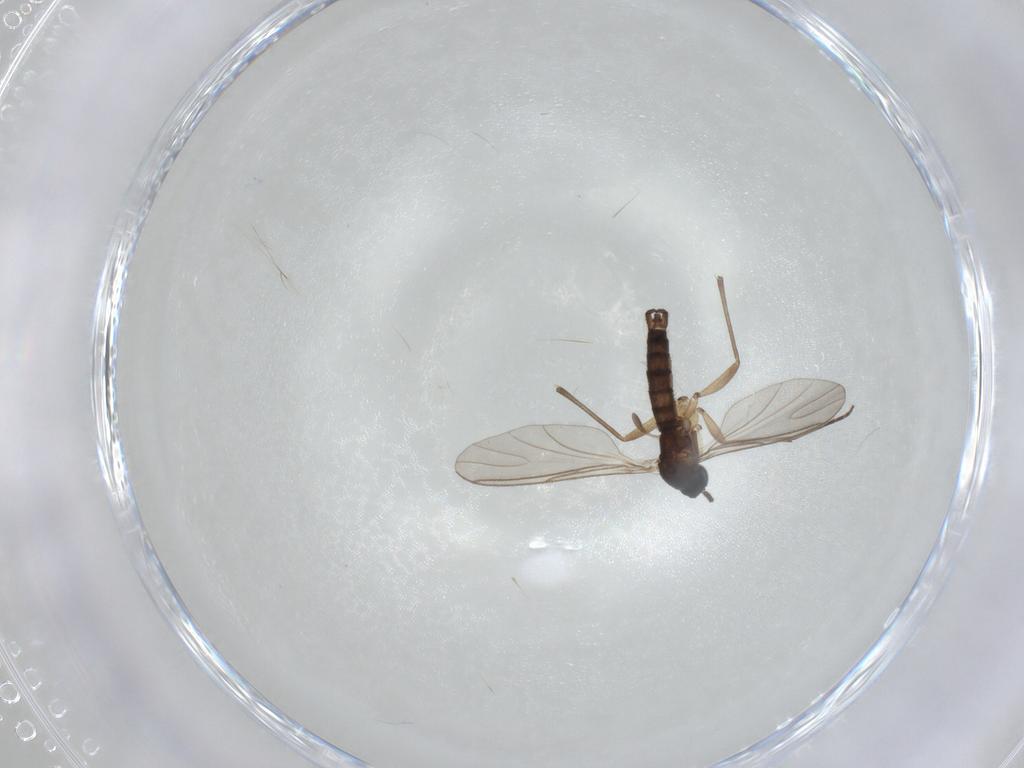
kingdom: Animalia
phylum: Arthropoda
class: Insecta
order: Diptera
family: Sciaridae
